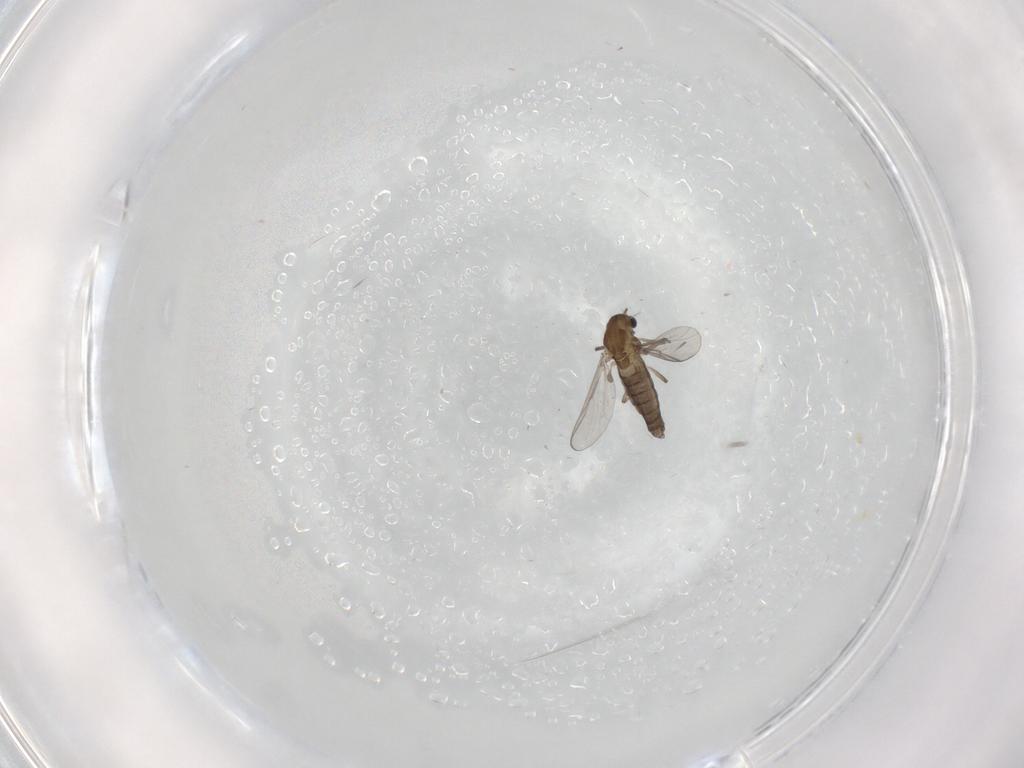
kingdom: Animalia
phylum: Arthropoda
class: Insecta
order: Diptera
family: Chironomidae
